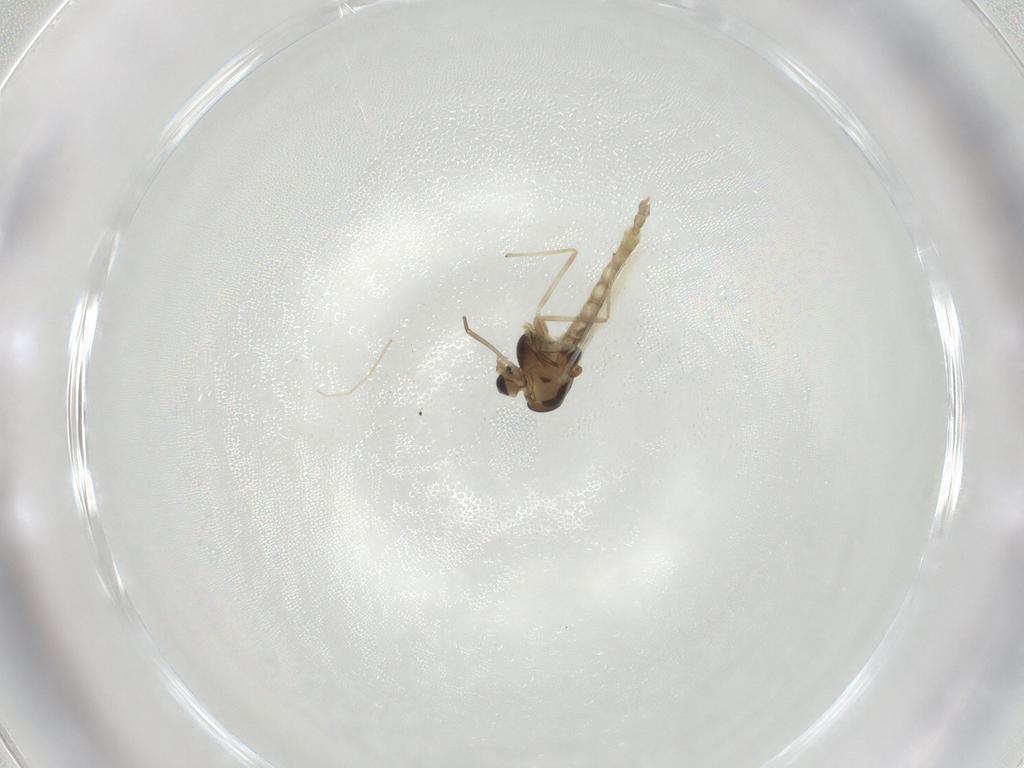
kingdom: Animalia
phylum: Arthropoda
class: Insecta
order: Diptera
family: Chironomidae
